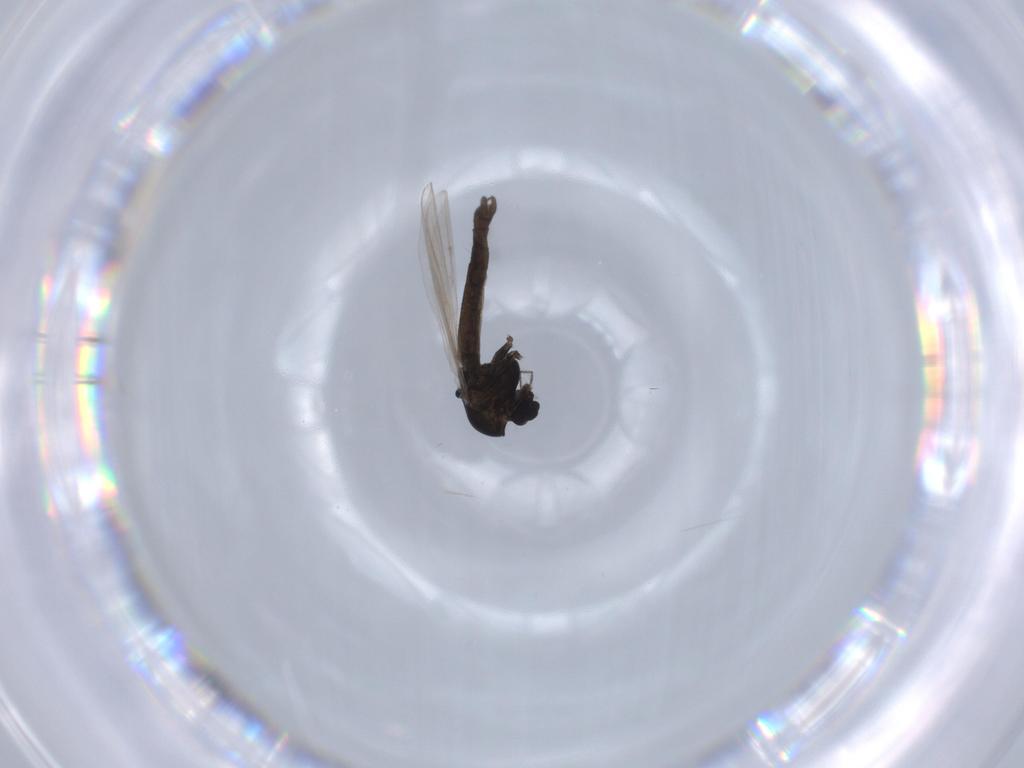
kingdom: Animalia
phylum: Arthropoda
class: Insecta
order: Diptera
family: Chironomidae
